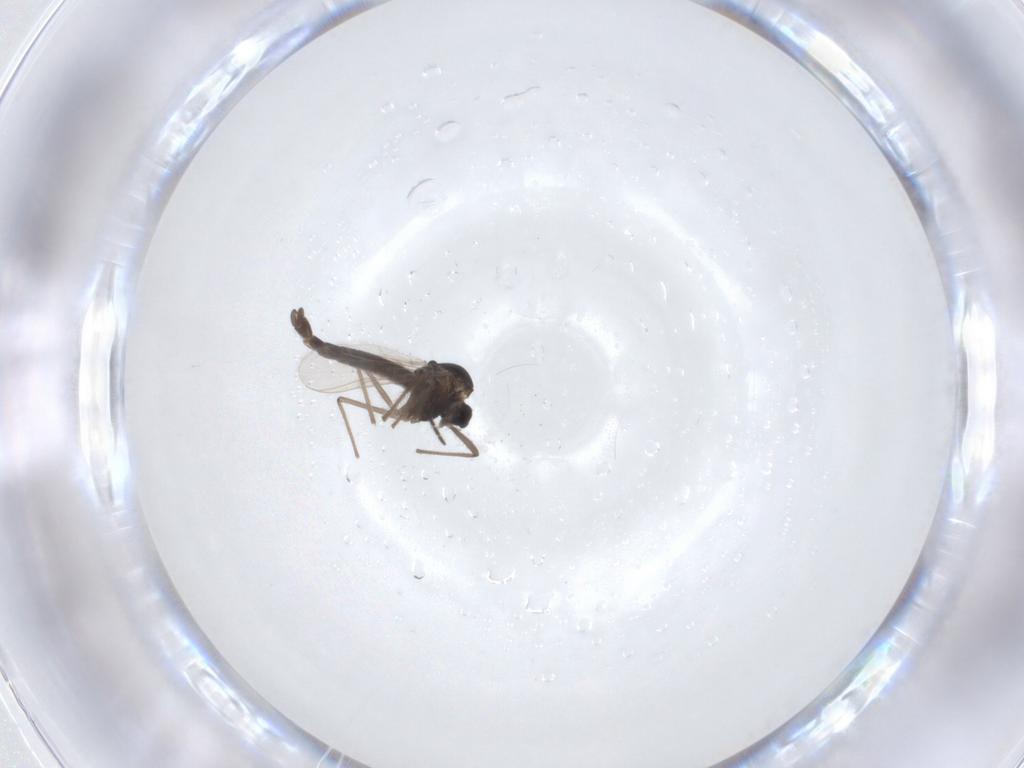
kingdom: Animalia
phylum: Arthropoda
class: Insecta
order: Diptera
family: Chironomidae
